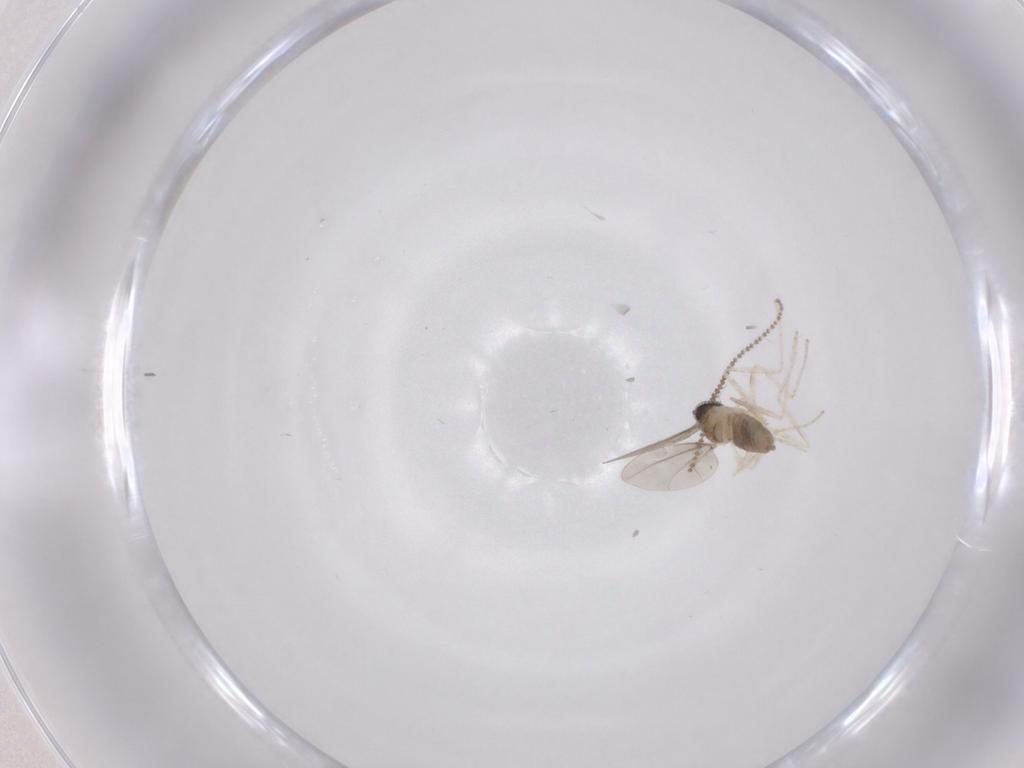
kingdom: Animalia
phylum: Arthropoda
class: Insecta
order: Diptera
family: Cecidomyiidae
